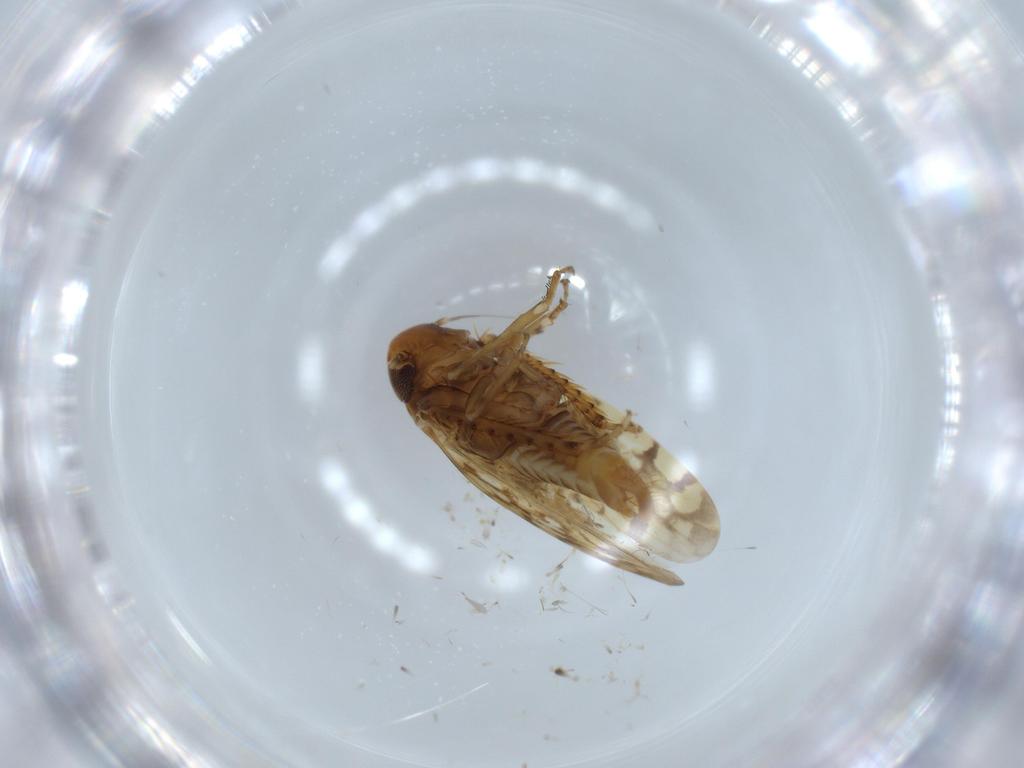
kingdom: Animalia
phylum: Arthropoda
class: Insecta
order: Hemiptera
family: Cicadellidae
